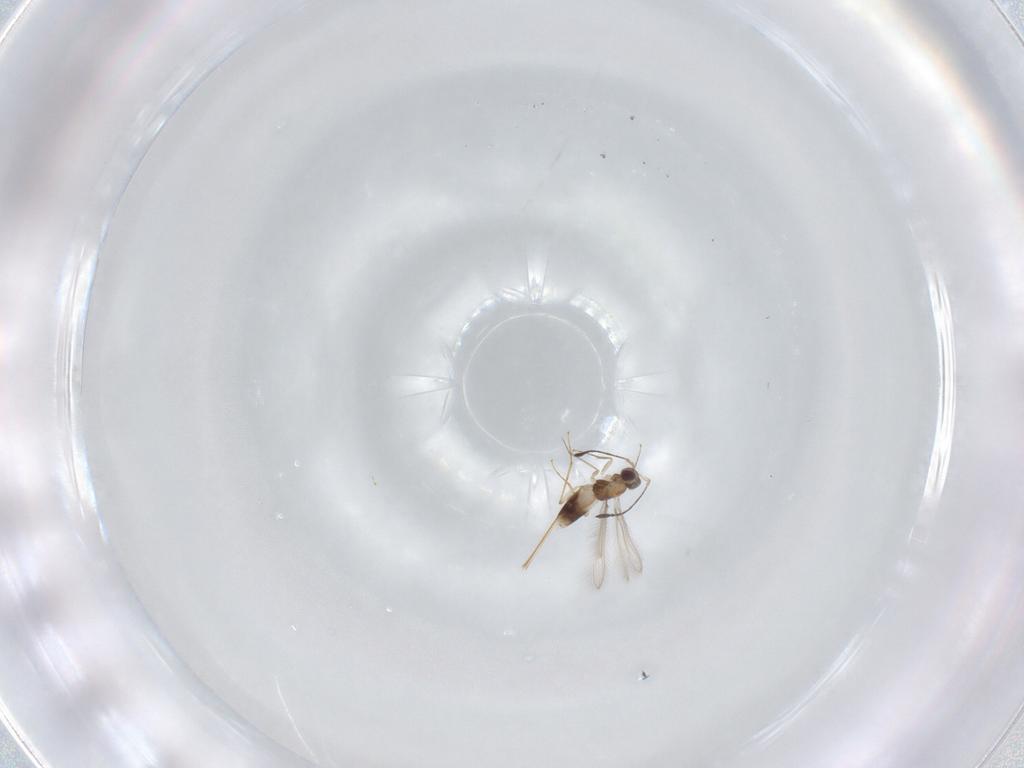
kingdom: Animalia
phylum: Arthropoda
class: Insecta
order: Hymenoptera
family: Mymaridae
